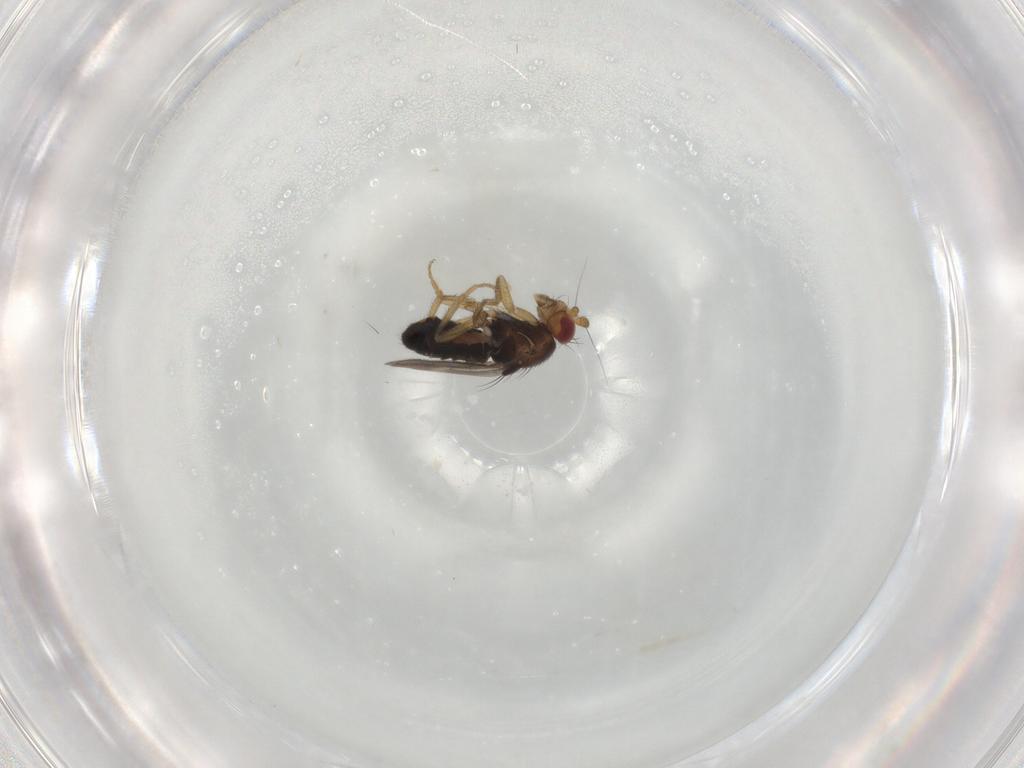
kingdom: Animalia
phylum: Arthropoda
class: Insecta
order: Diptera
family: Sphaeroceridae
